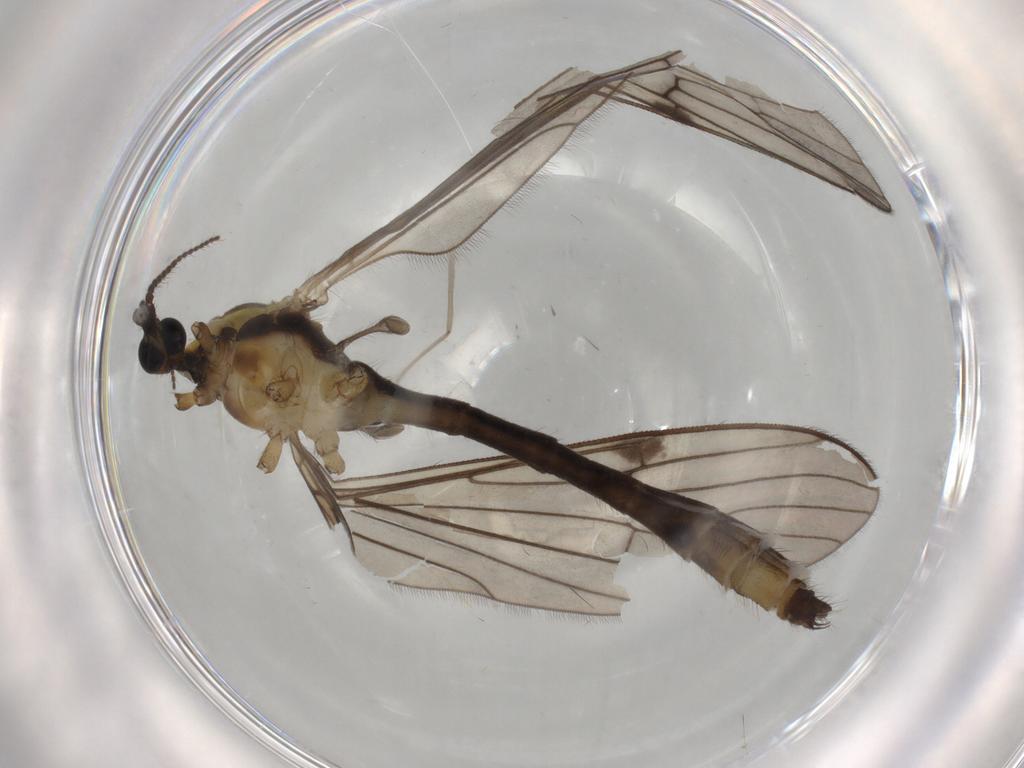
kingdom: Animalia
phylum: Arthropoda
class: Insecta
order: Diptera
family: Limoniidae
